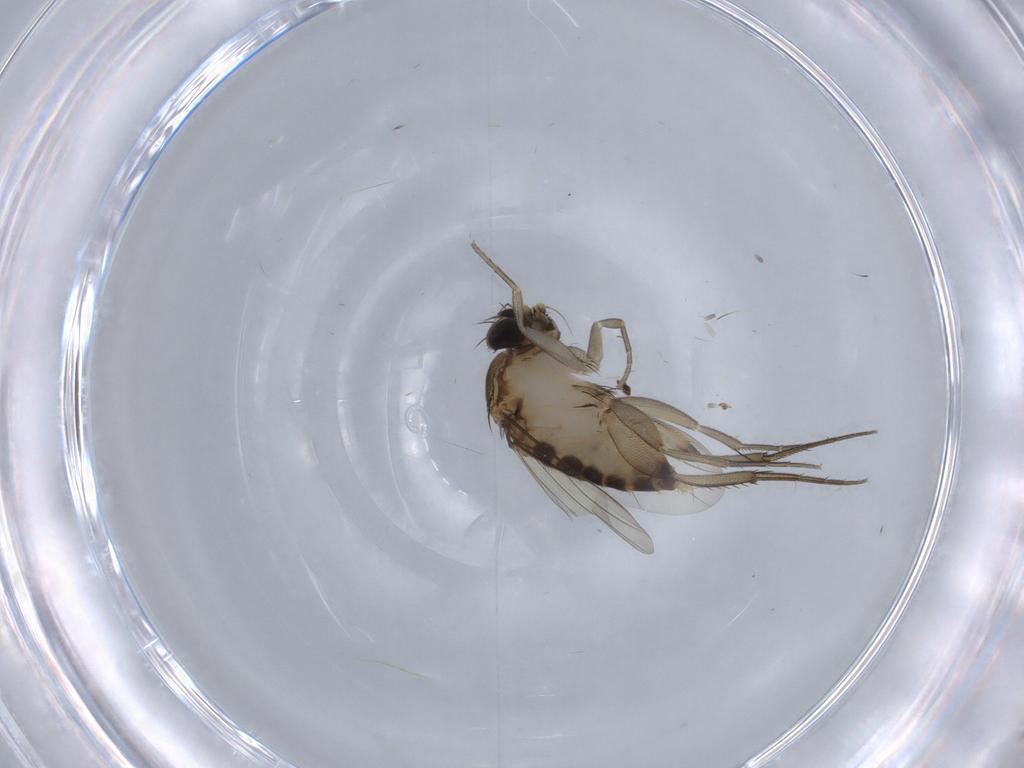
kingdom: Animalia
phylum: Arthropoda
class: Insecta
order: Diptera
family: Phoridae
